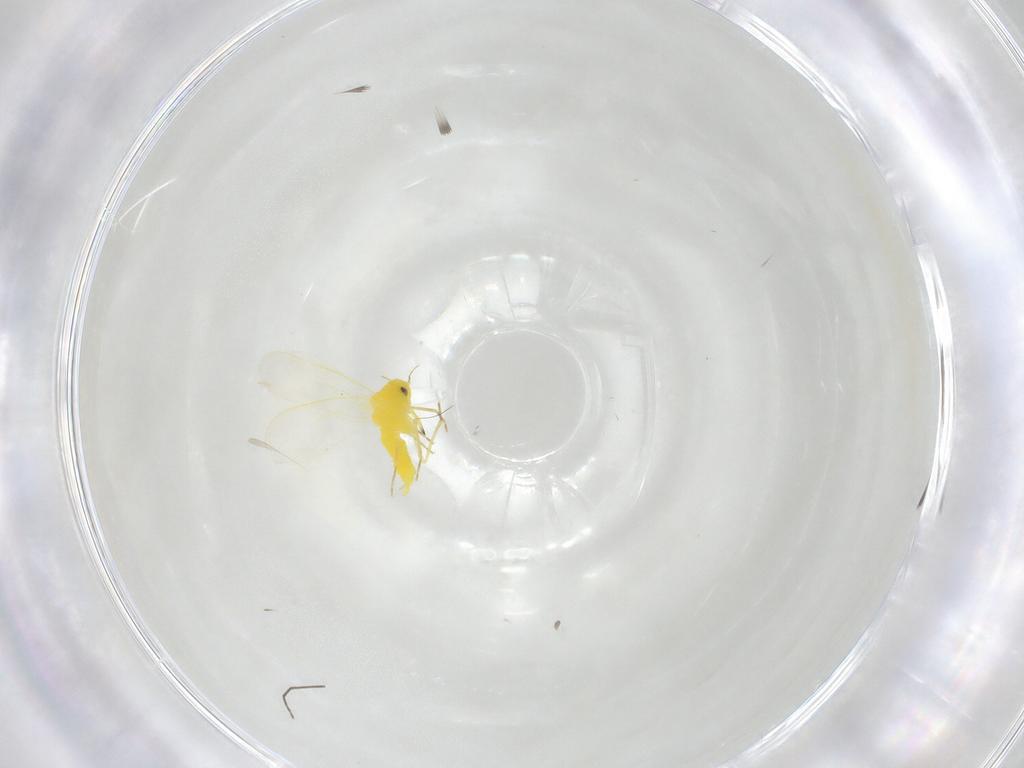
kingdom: Animalia
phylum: Arthropoda
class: Insecta
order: Hemiptera
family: Aleyrodidae
